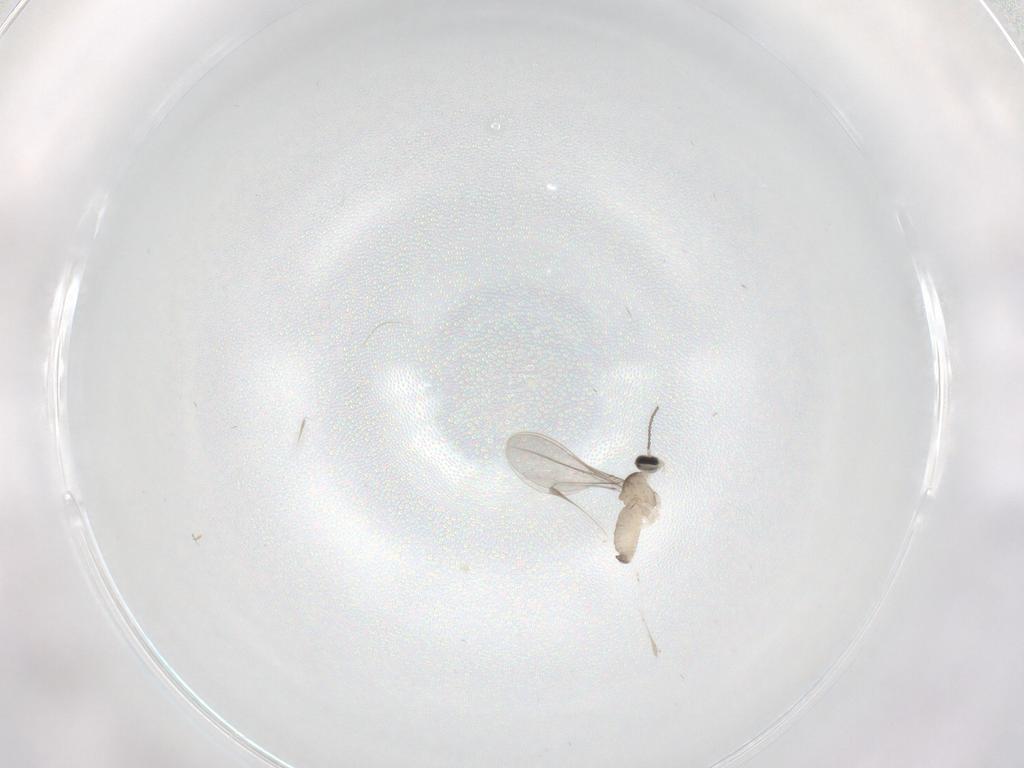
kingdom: Animalia
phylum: Arthropoda
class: Insecta
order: Diptera
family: Cecidomyiidae
